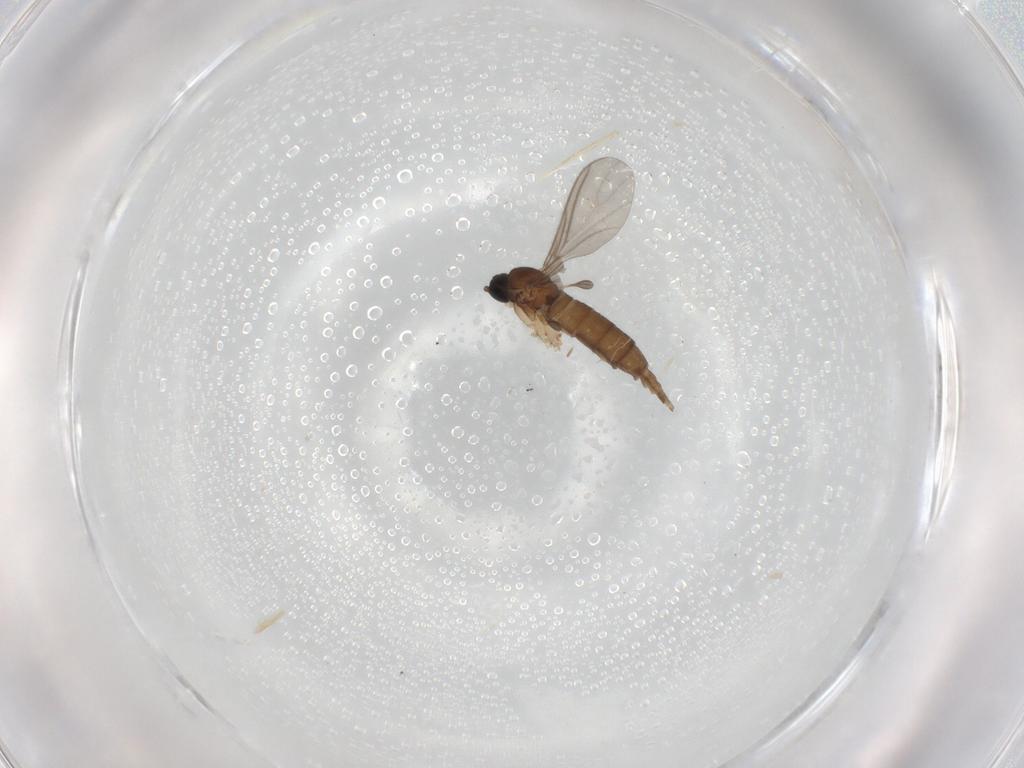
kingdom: Animalia
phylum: Arthropoda
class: Insecta
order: Diptera
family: Sciaridae
